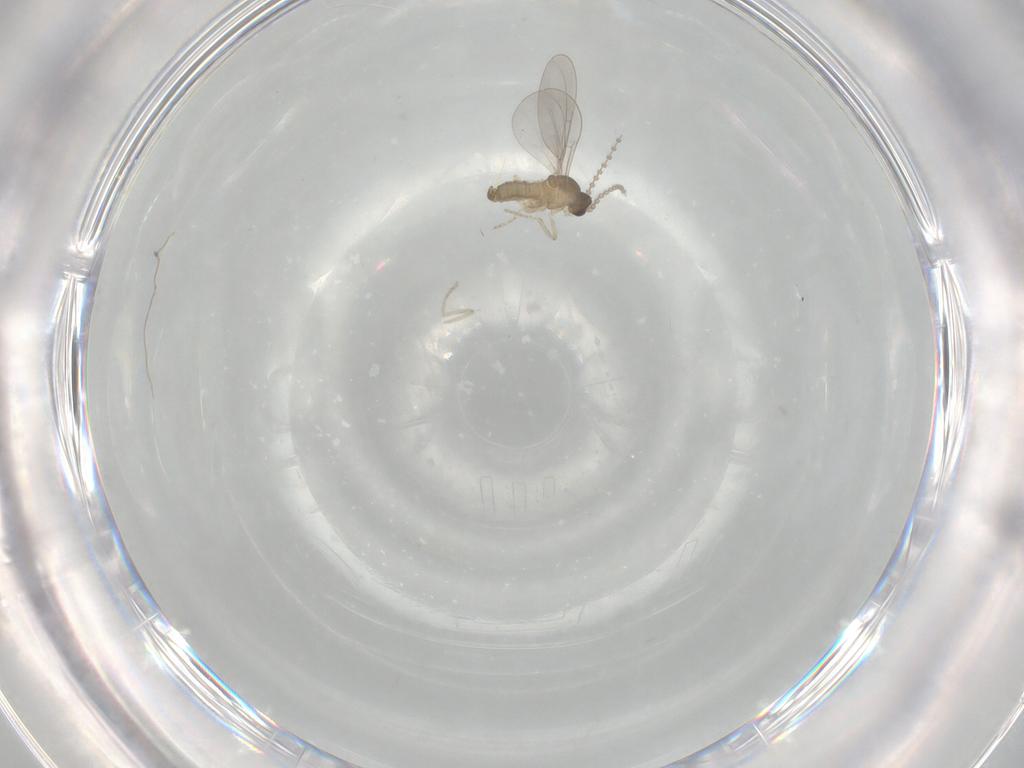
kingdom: Animalia
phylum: Arthropoda
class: Insecta
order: Diptera
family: Cecidomyiidae
